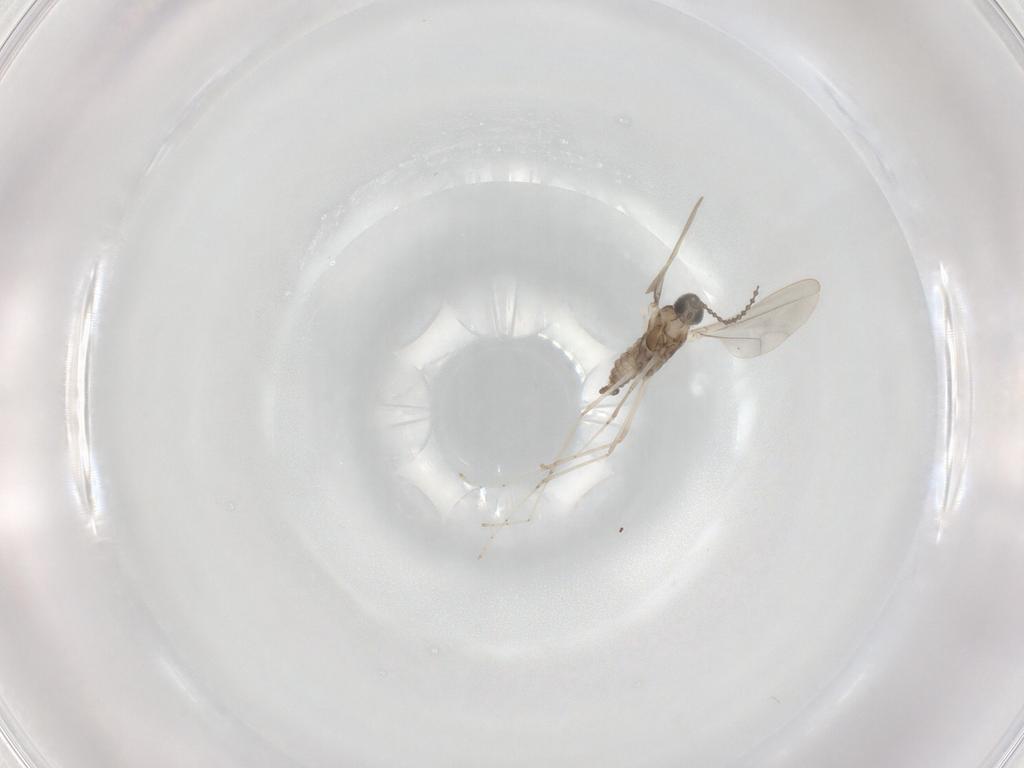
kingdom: Animalia
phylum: Arthropoda
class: Insecta
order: Diptera
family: Cecidomyiidae
